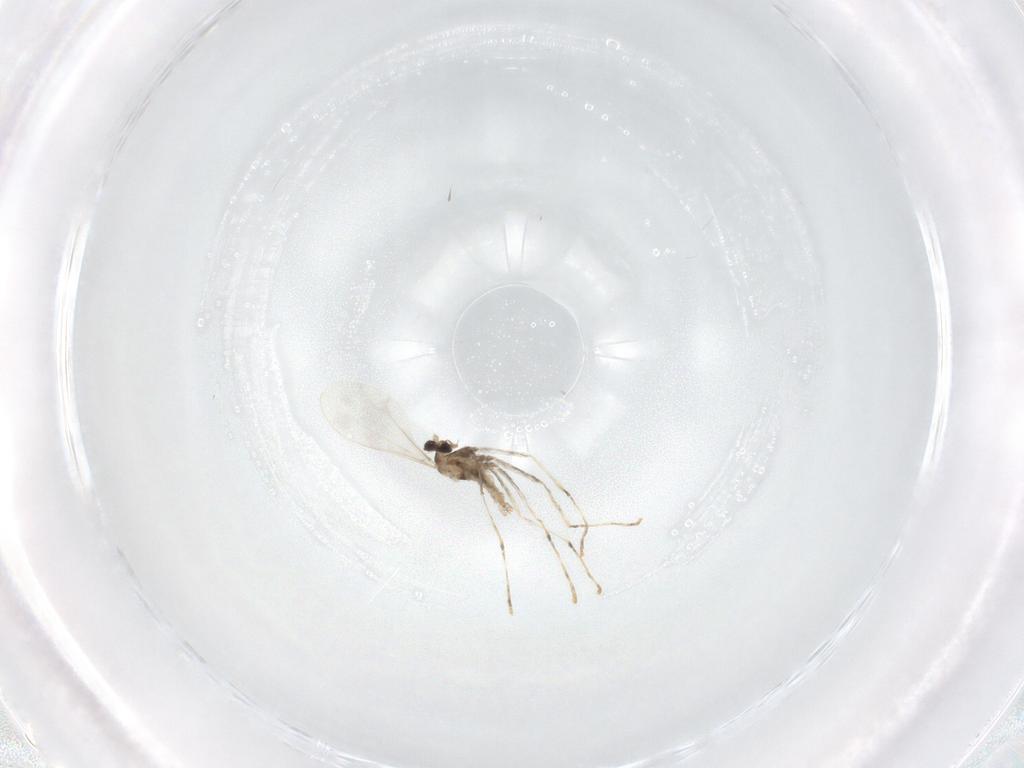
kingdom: Animalia
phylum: Arthropoda
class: Insecta
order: Diptera
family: Cecidomyiidae
